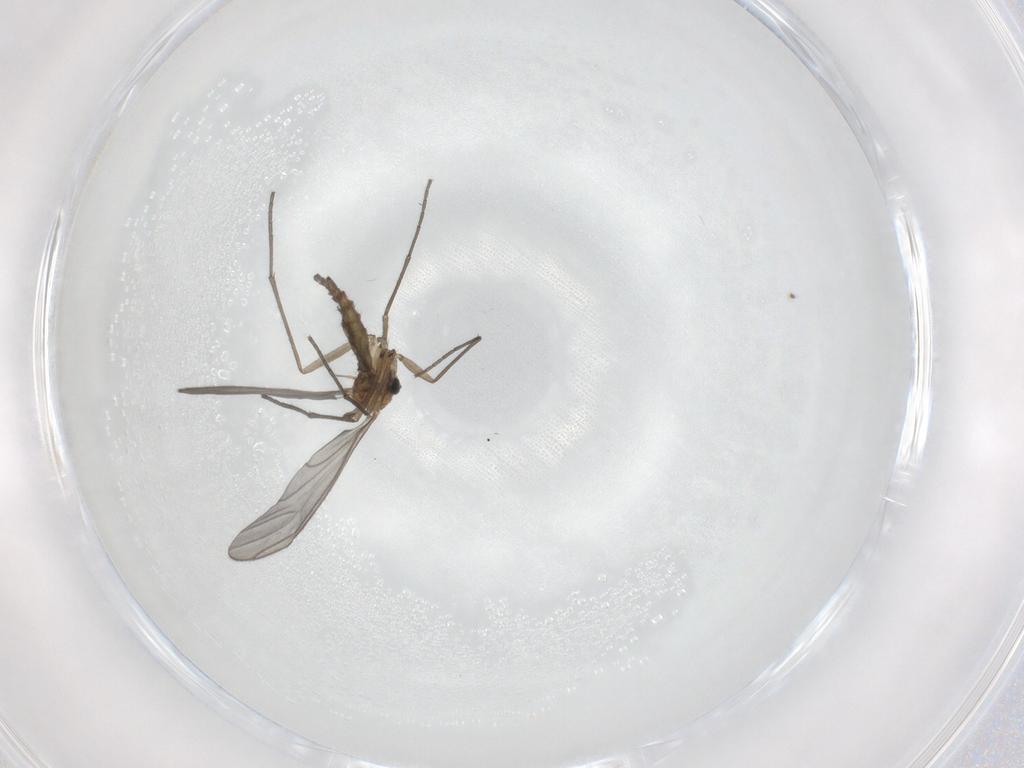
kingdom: Animalia
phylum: Arthropoda
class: Insecta
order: Diptera
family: Sciaridae
